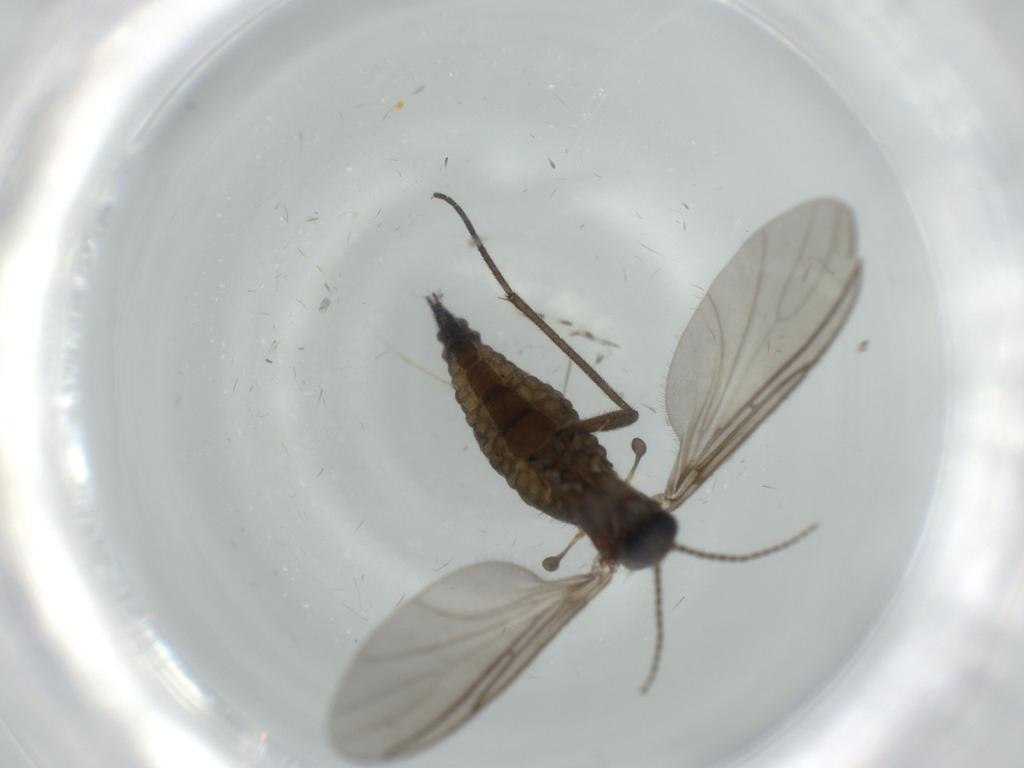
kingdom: Animalia
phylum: Arthropoda
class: Insecta
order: Diptera
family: Sciaridae
